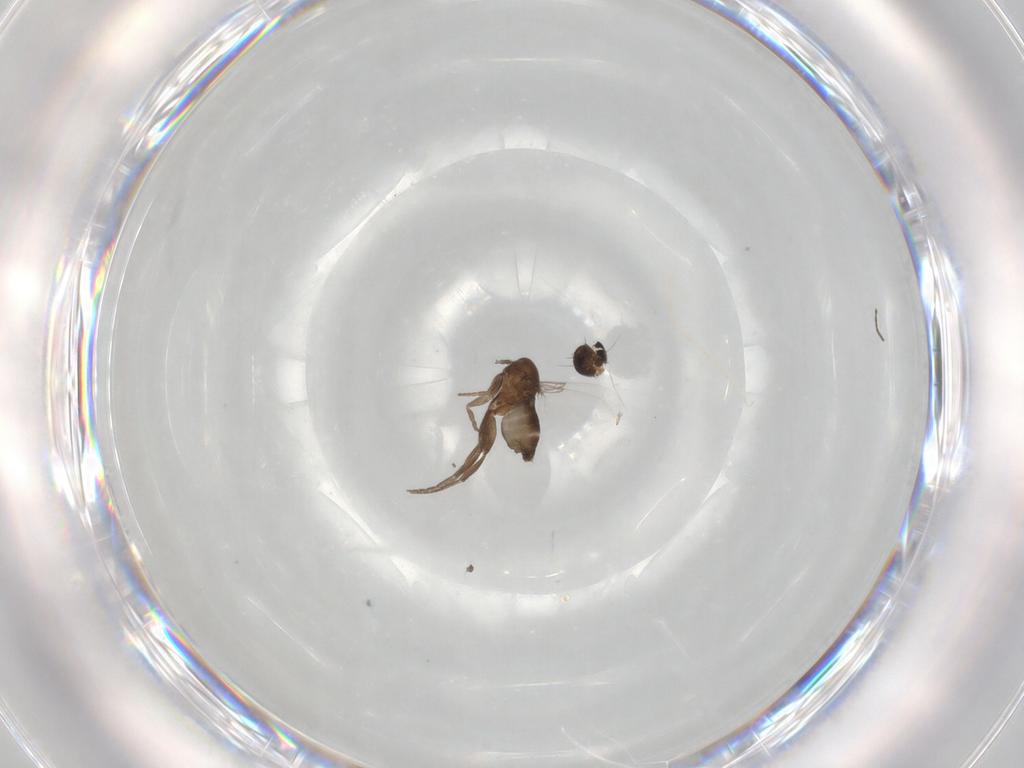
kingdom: Animalia
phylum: Arthropoda
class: Insecta
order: Diptera
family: Phoridae
